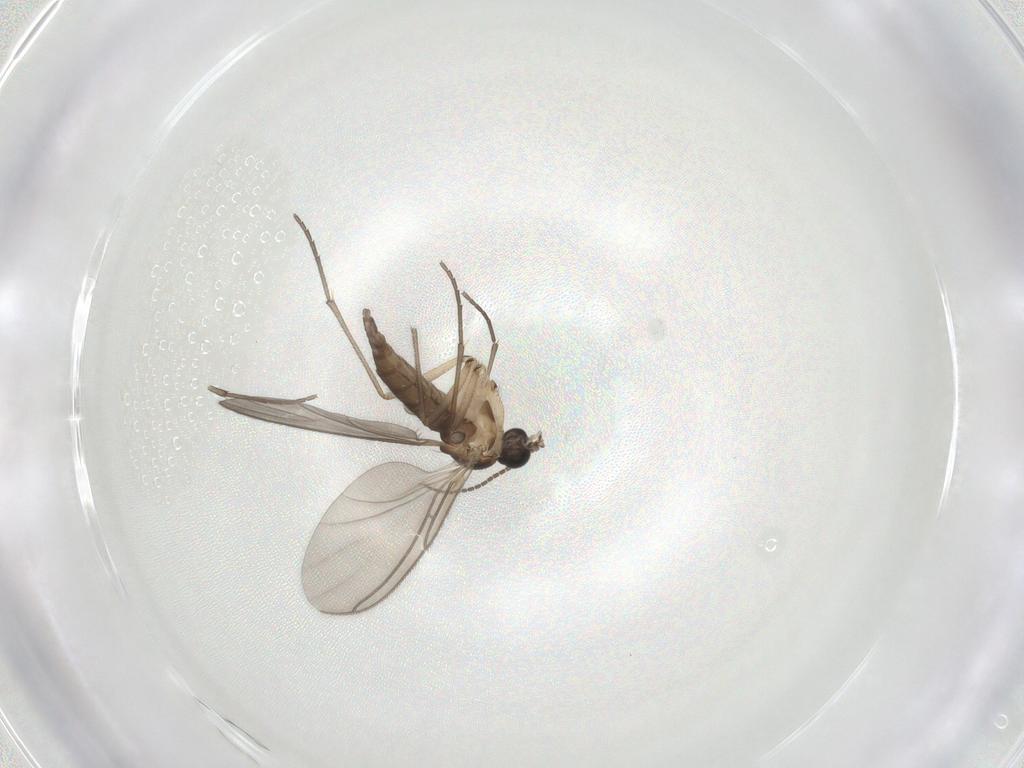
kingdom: Animalia
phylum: Arthropoda
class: Insecta
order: Diptera
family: Sciaridae
